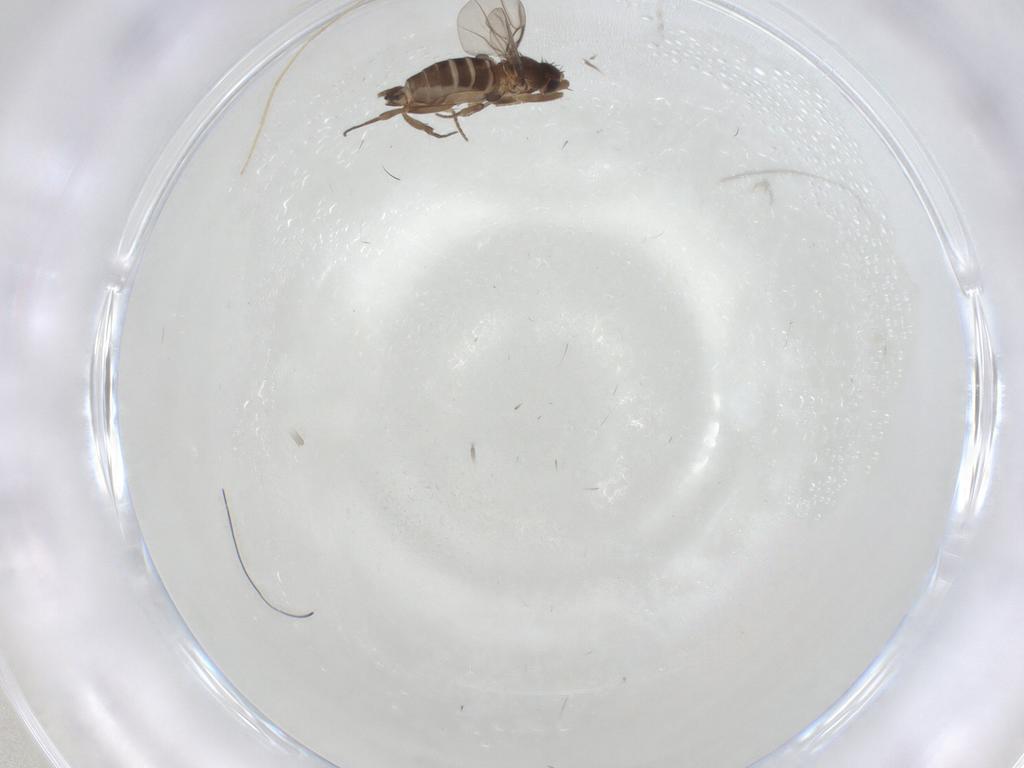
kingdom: Animalia
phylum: Arthropoda
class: Insecta
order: Diptera
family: Phoridae
